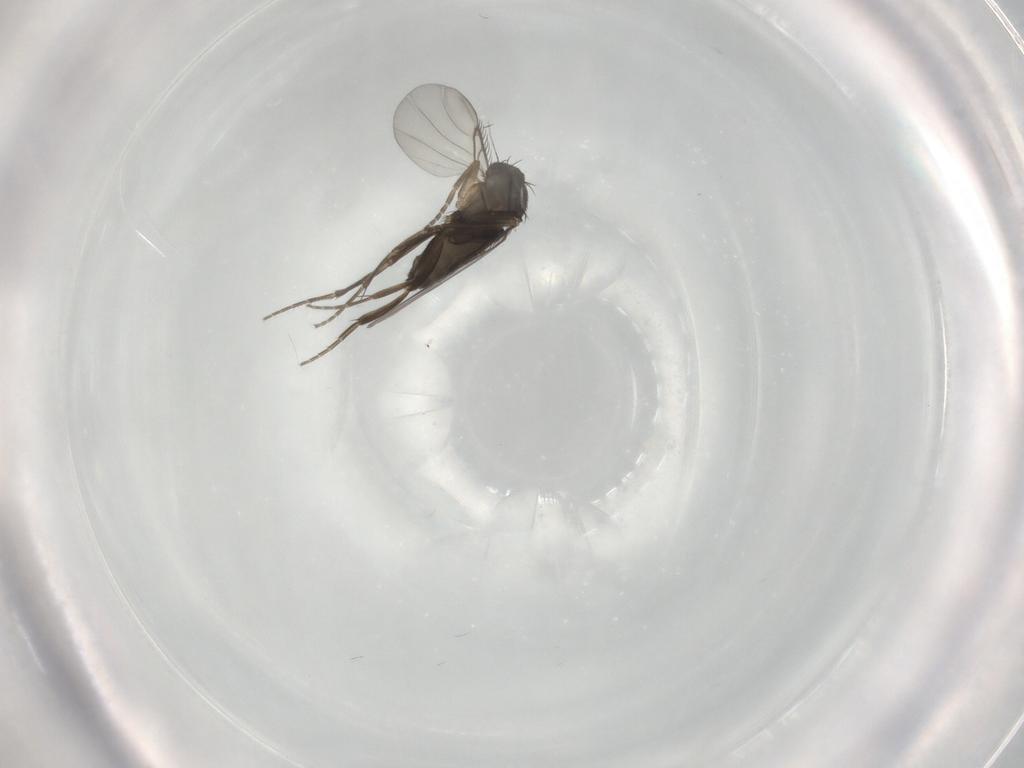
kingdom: Animalia
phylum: Arthropoda
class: Insecta
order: Diptera
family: Phoridae
